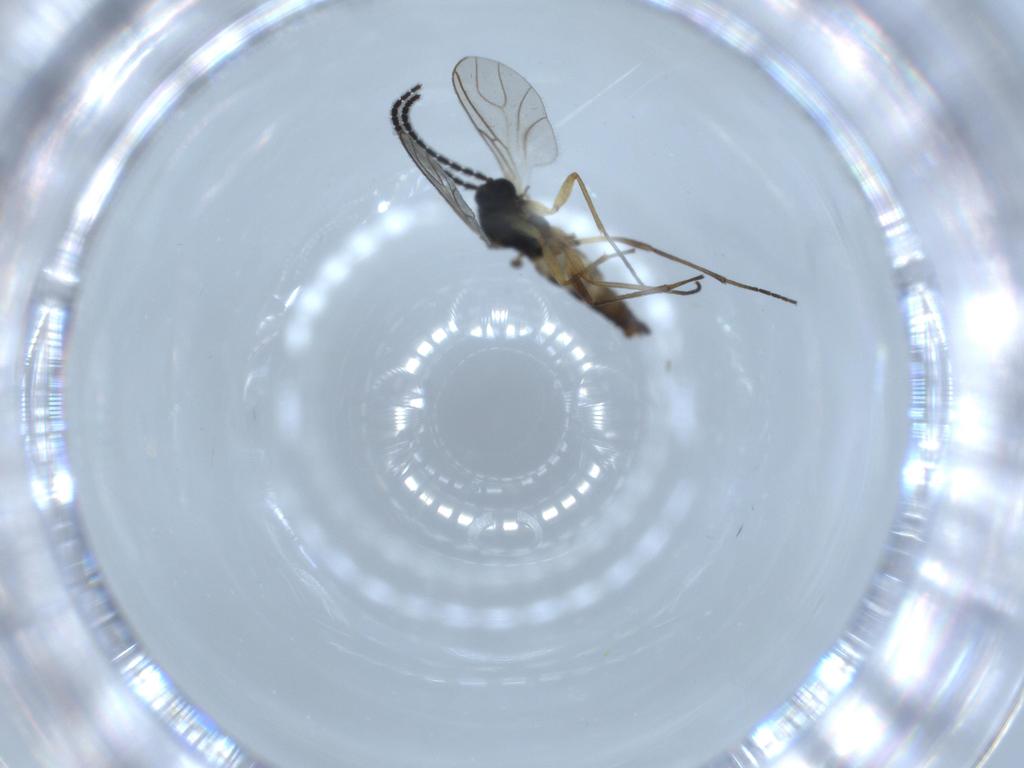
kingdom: Animalia
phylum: Arthropoda
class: Insecta
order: Diptera
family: Sciaridae
